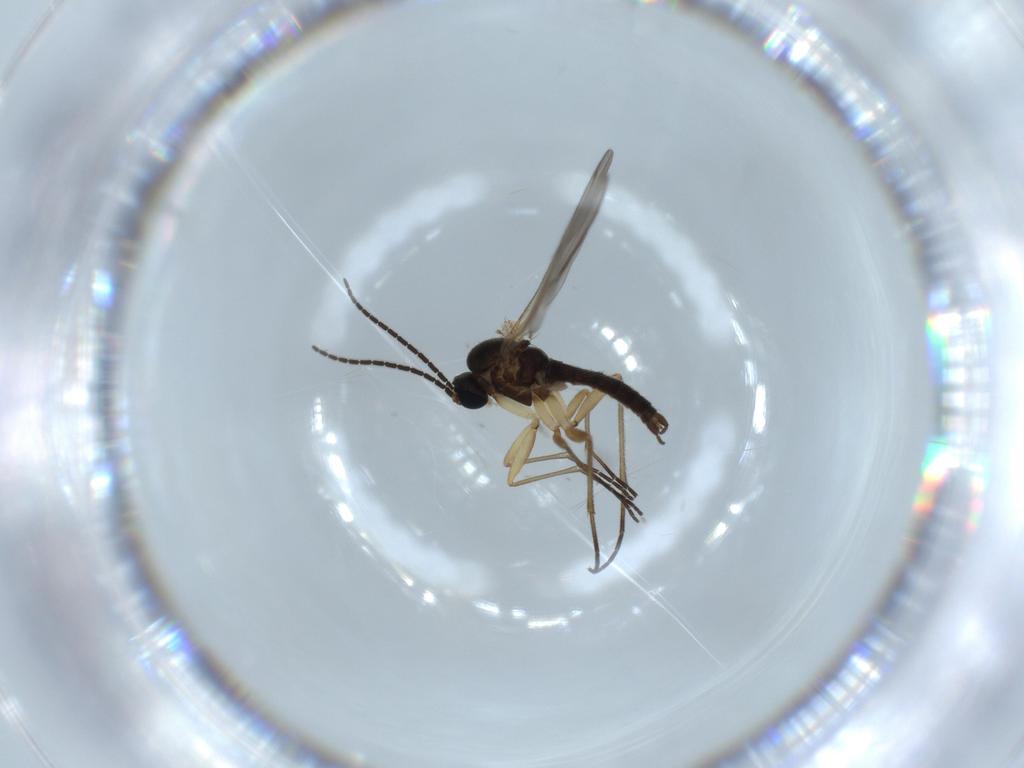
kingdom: Animalia
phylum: Arthropoda
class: Insecta
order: Diptera
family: Sciaridae
